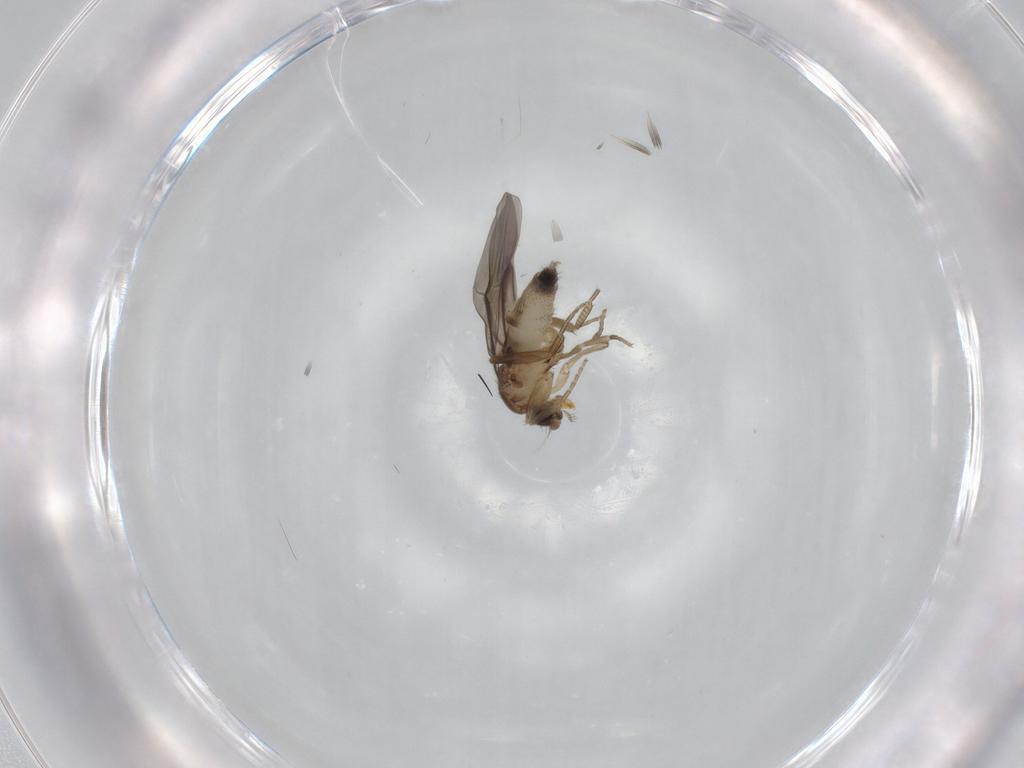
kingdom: Animalia
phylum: Arthropoda
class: Insecta
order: Diptera
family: Phoridae
